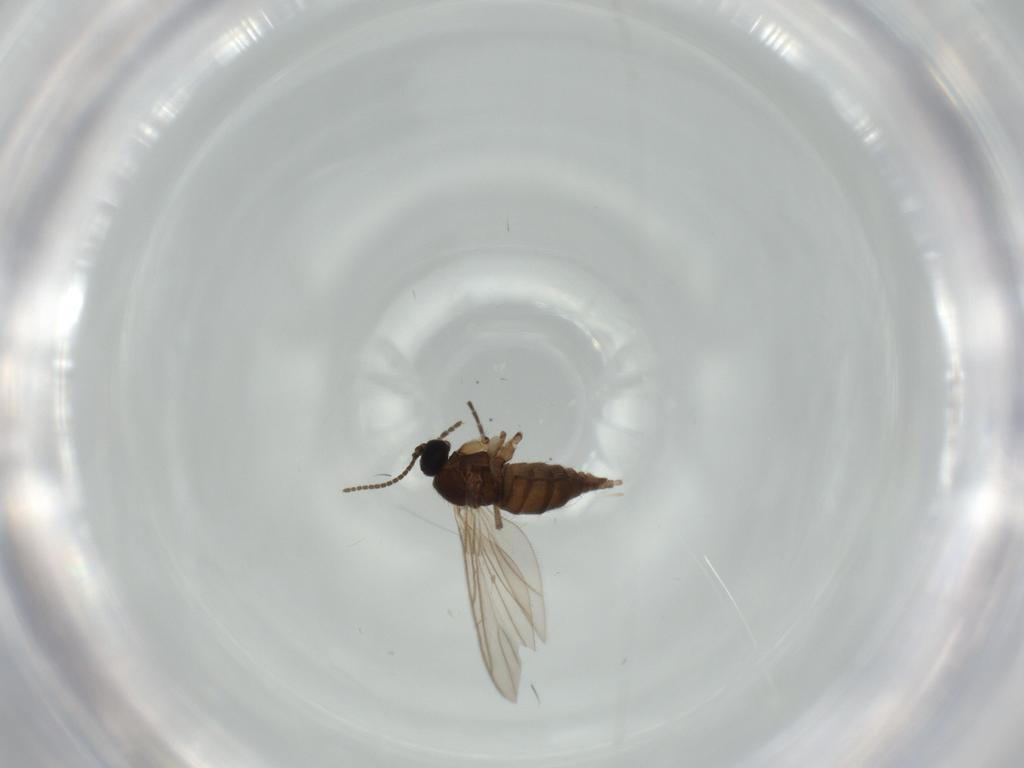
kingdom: Animalia
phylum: Arthropoda
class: Insecta
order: Diptera
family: Sciaridae
